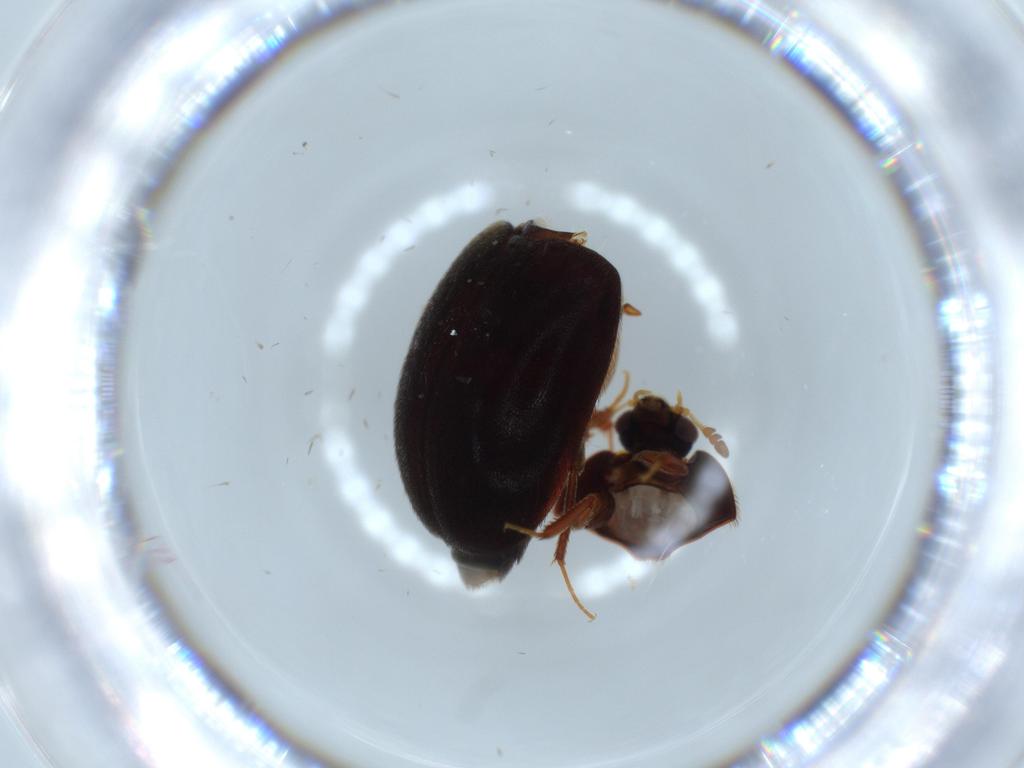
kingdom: Animalia
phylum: Arthropoda
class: Insecta
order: Coleoptera
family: Dermestidae
